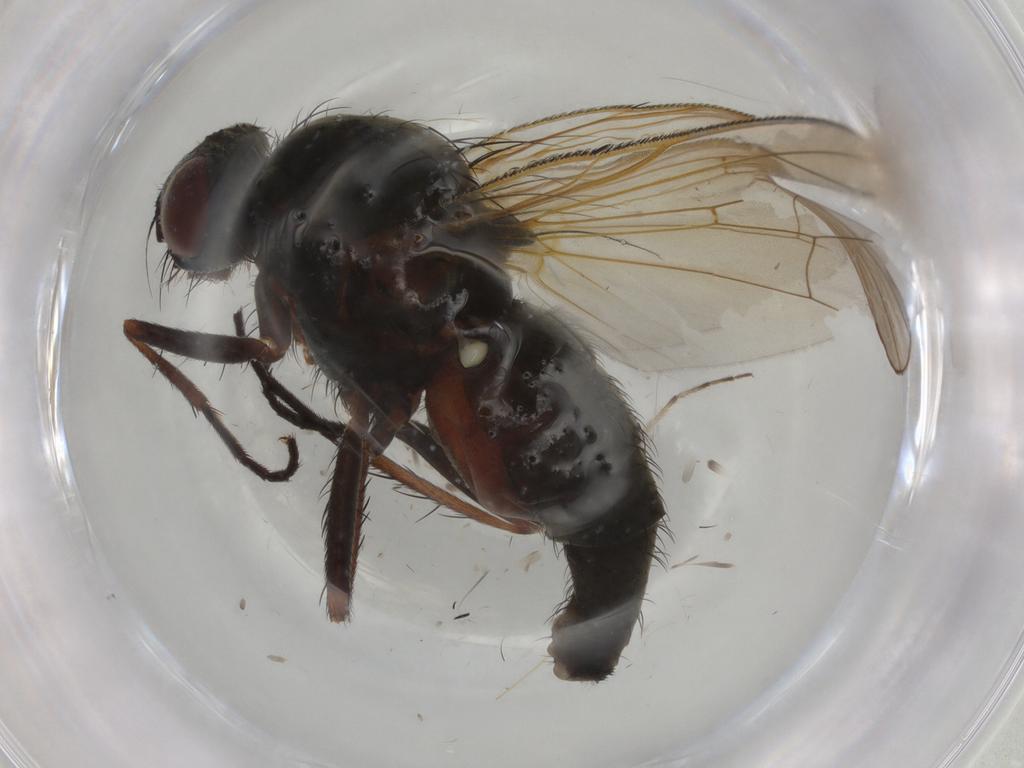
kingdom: Animalia
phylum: Arthropoda
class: Insecta
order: Diptera
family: Anthomyiidae
